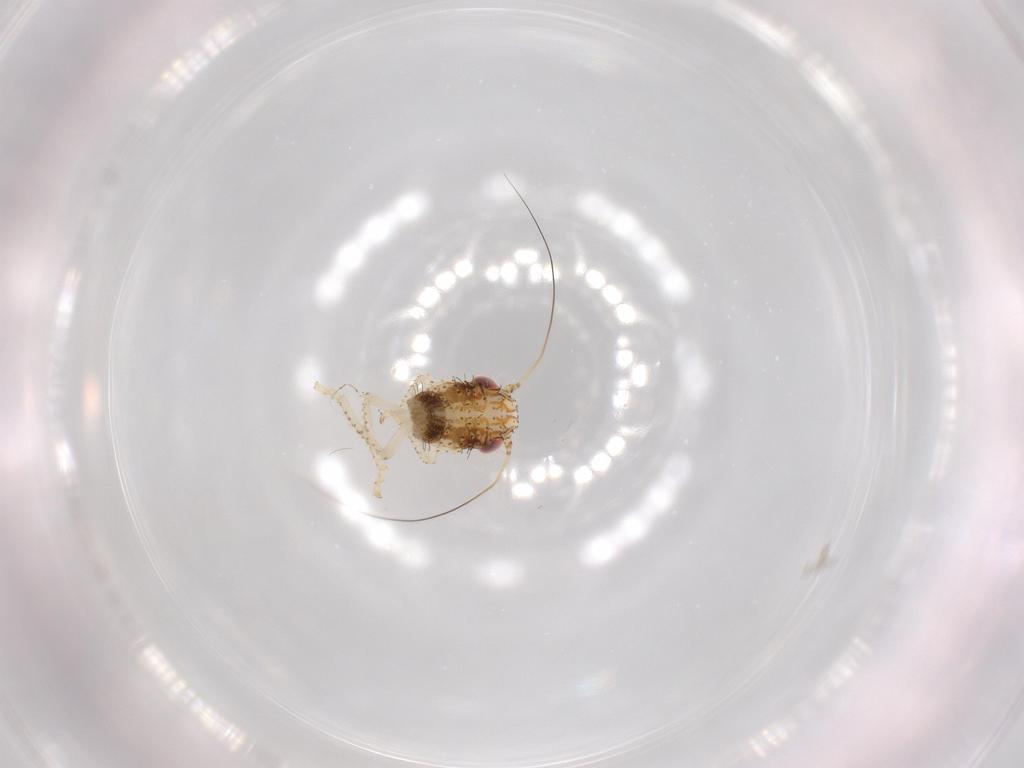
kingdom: Animalia
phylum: Arthropoda
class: Insecta
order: Hemiptera
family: Cicadellidae
